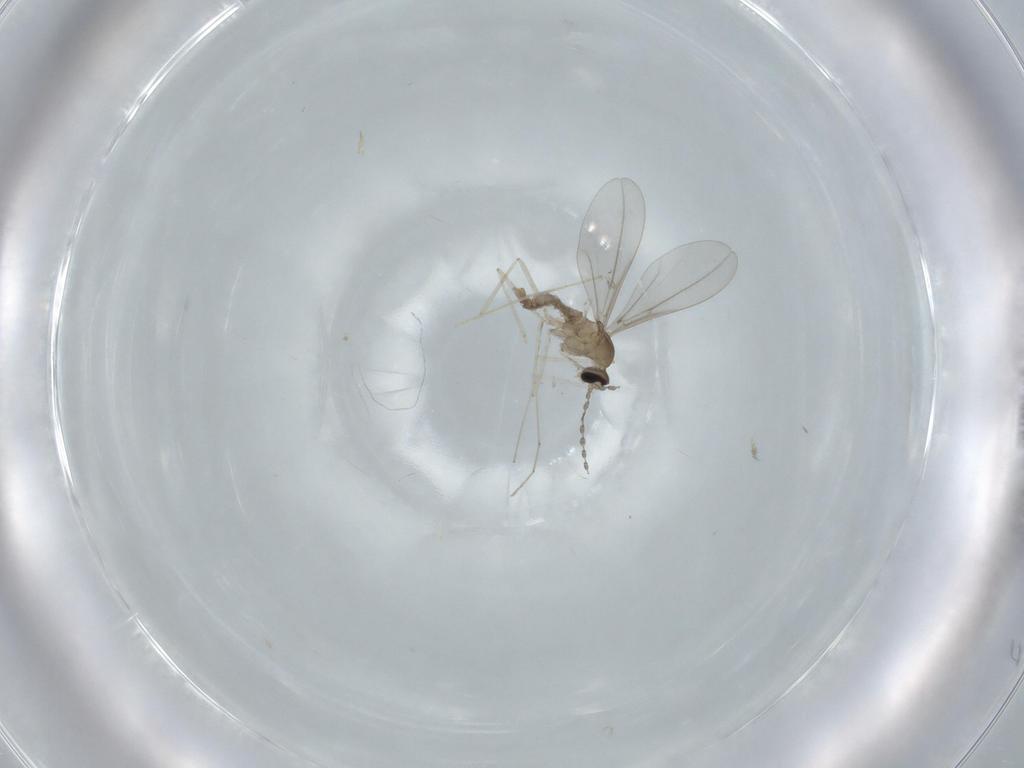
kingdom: Animalia
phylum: Arthropoda
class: Insecta
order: Diptera
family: Cecidomyiidae
